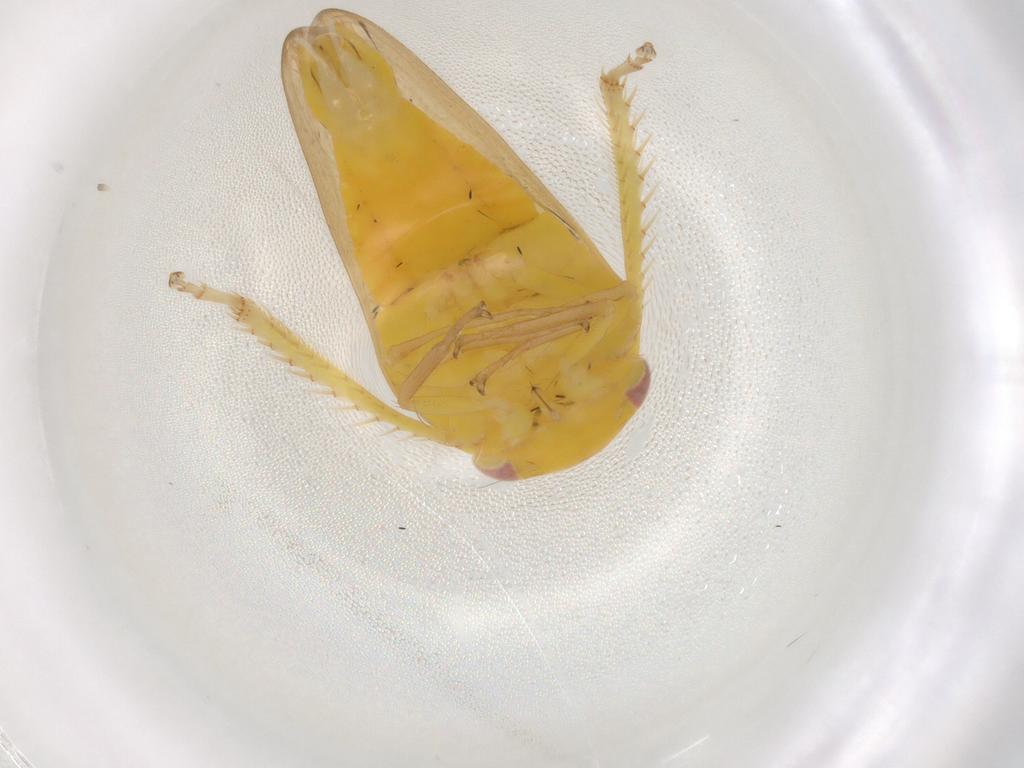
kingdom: Animalia
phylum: Arthropoda
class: Insecta
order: Hemiptera
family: Cicadellidae
